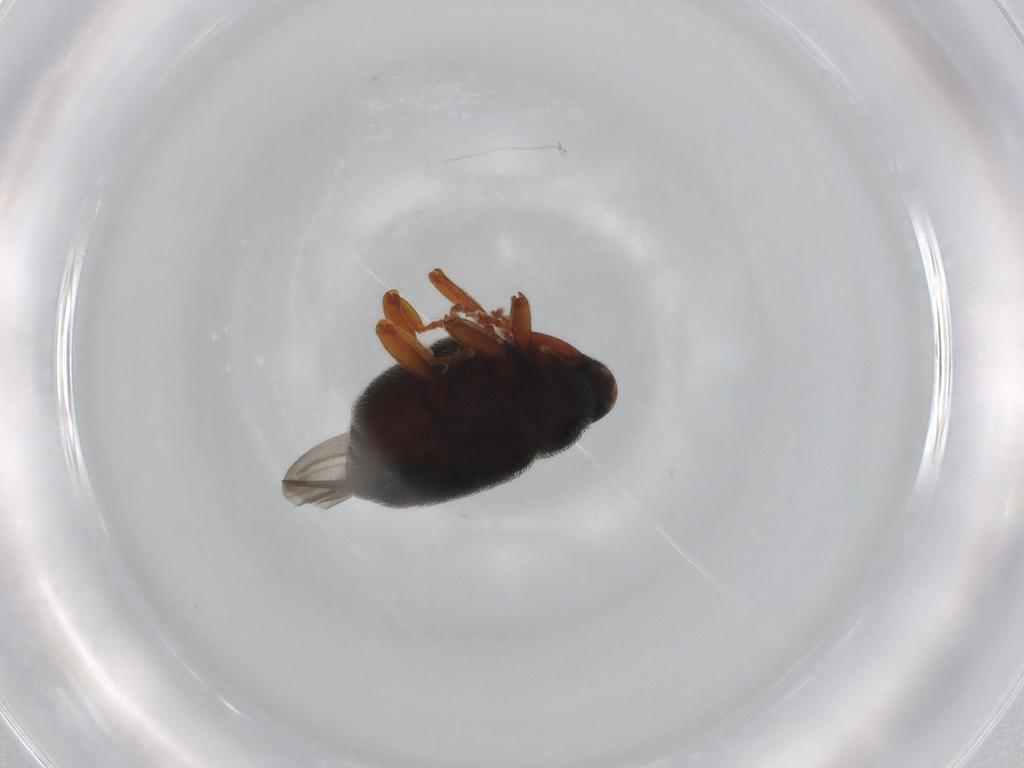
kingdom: Animalia
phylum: Arthropoda
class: Insecta
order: Coleoptera
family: Curculionidae
